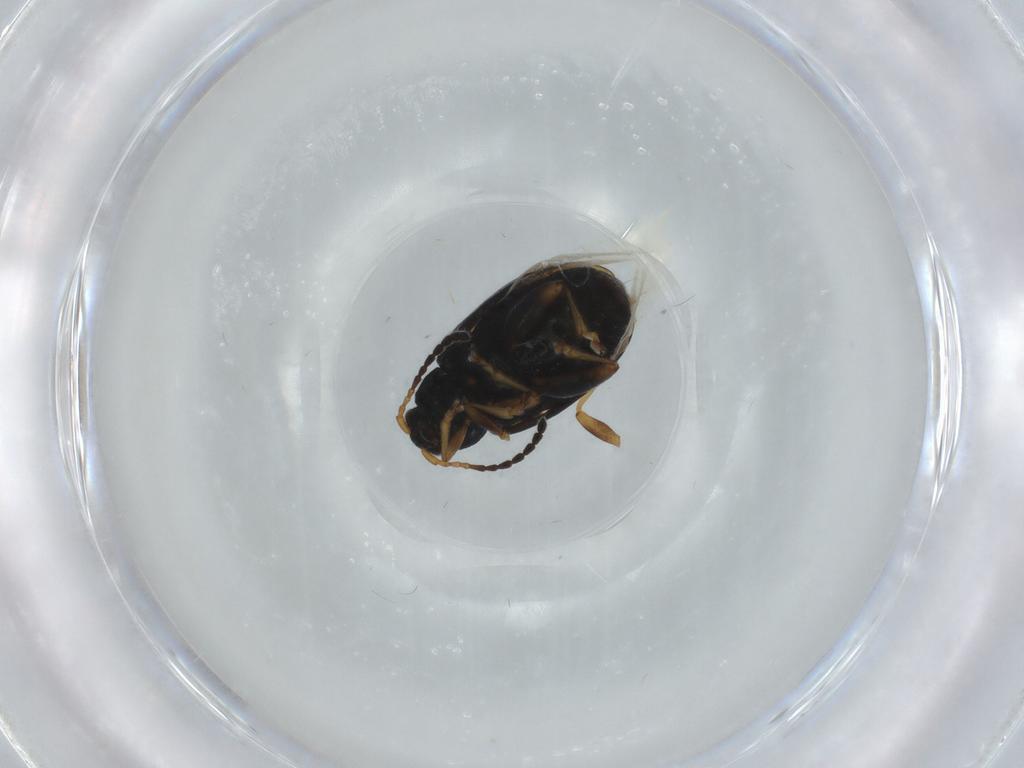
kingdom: Animalia
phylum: Arthropoda
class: Insecta
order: Coleoptera
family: Chrysomelidae
